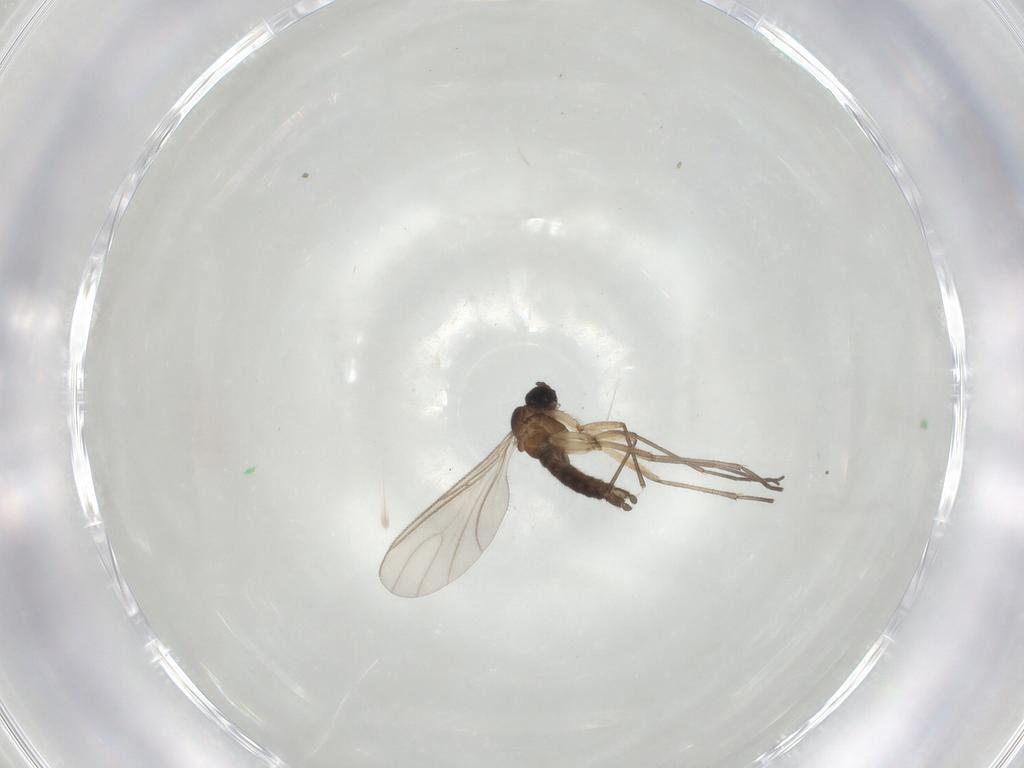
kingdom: Animalia
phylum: Arthropoda
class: Insecta
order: Diptera
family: Sciaridae
